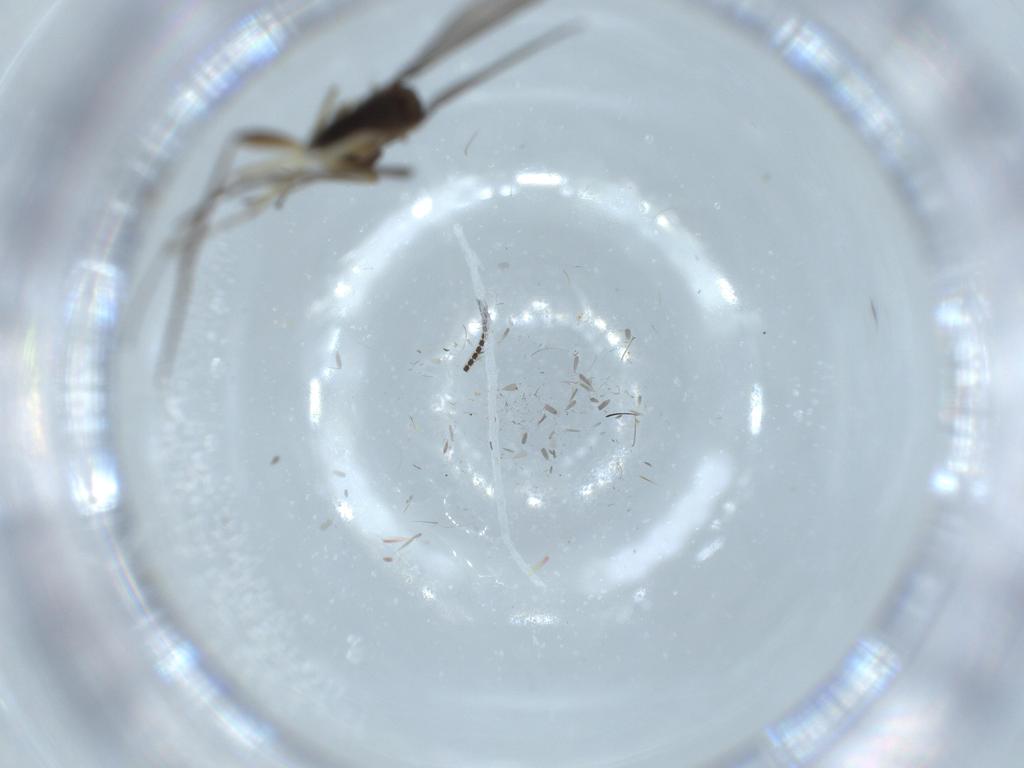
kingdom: Animalia
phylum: Arthropoda
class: Insecta
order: Diptera
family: Dolichopodidae
